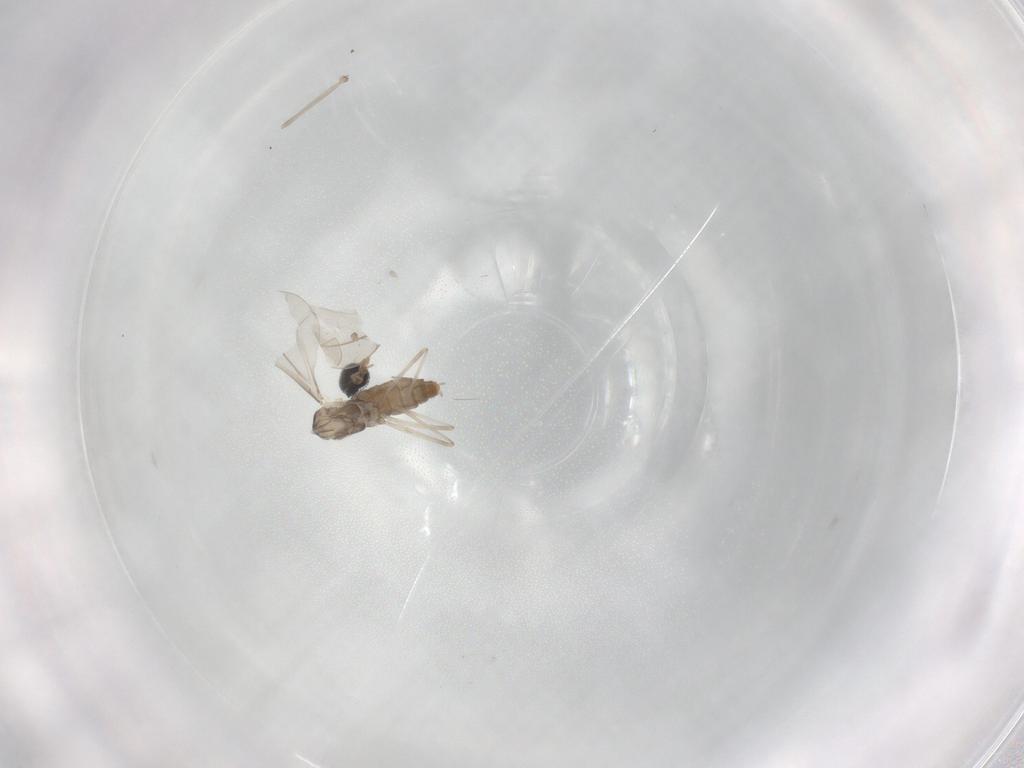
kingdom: Animalia
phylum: Arthropoda
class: Insecta
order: Diptera
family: Cecidomyiidae
